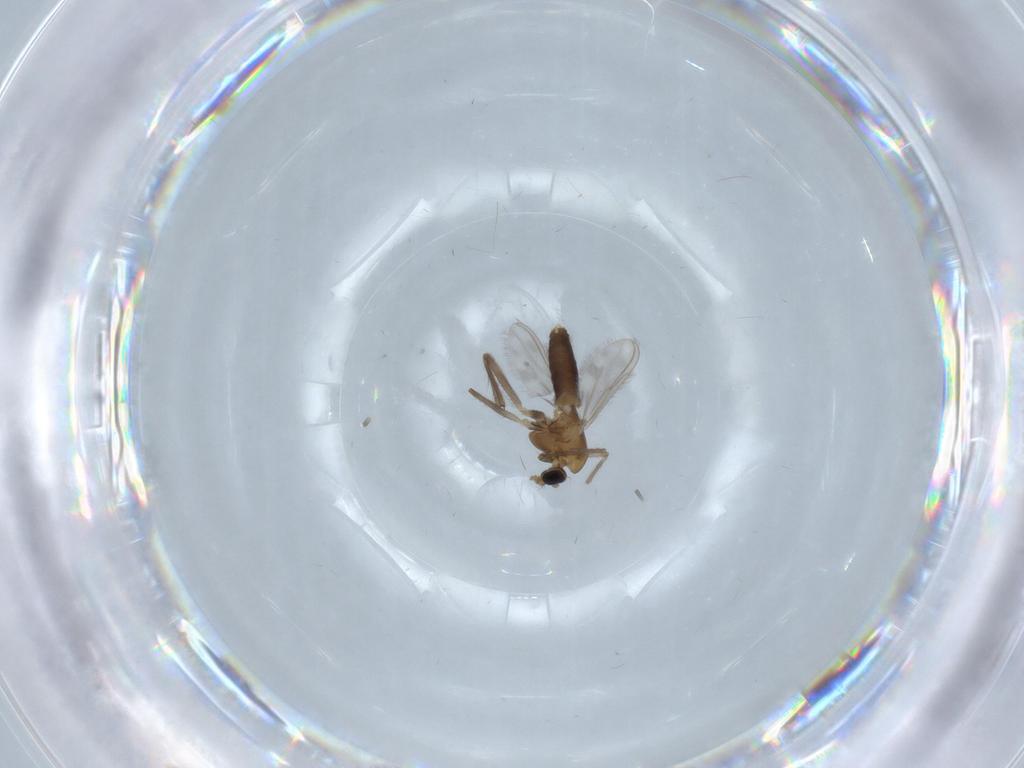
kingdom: Animalia
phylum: Arthropoda
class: Insecta
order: Diptera
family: Chironomidae
